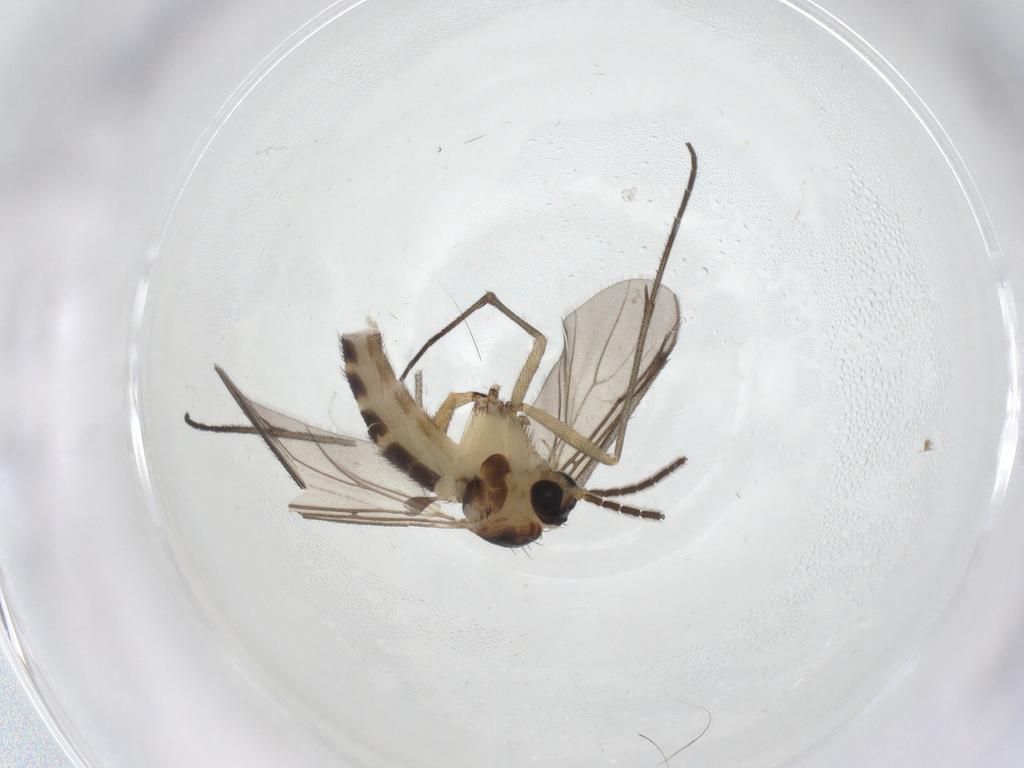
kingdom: Animalia
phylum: Arthropoda
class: Insecta
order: Diptera
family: Sciaridae
